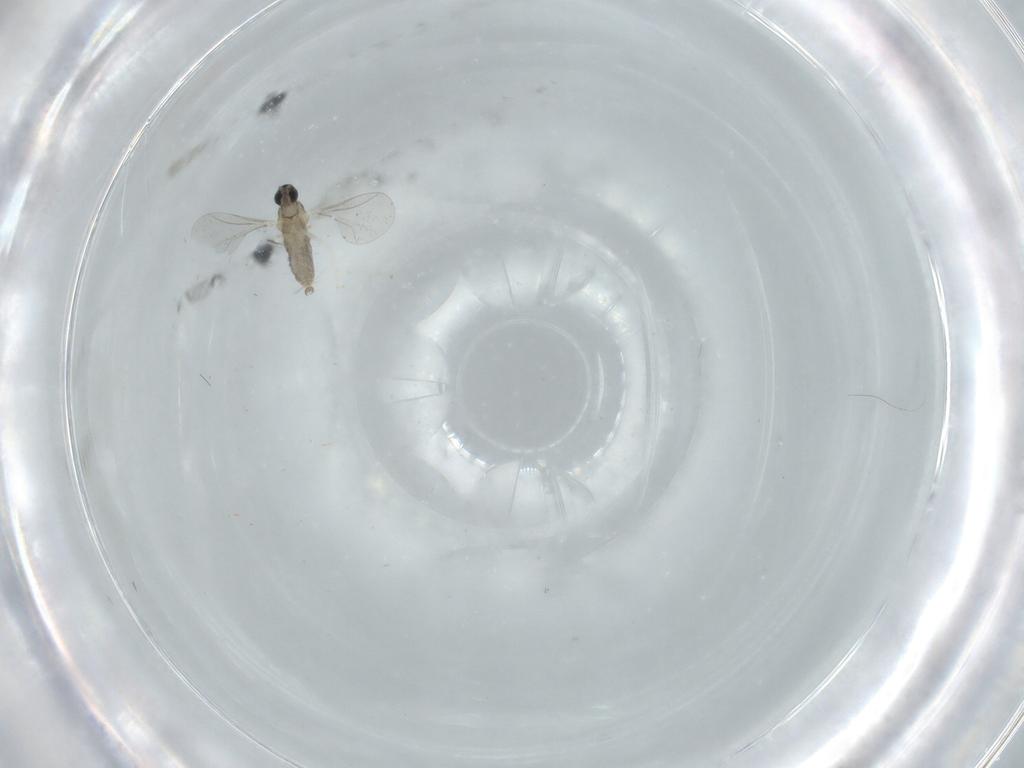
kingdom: Animalia
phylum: Arthropoda
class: Insecta
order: Diptera
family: Cecidomyiidae
